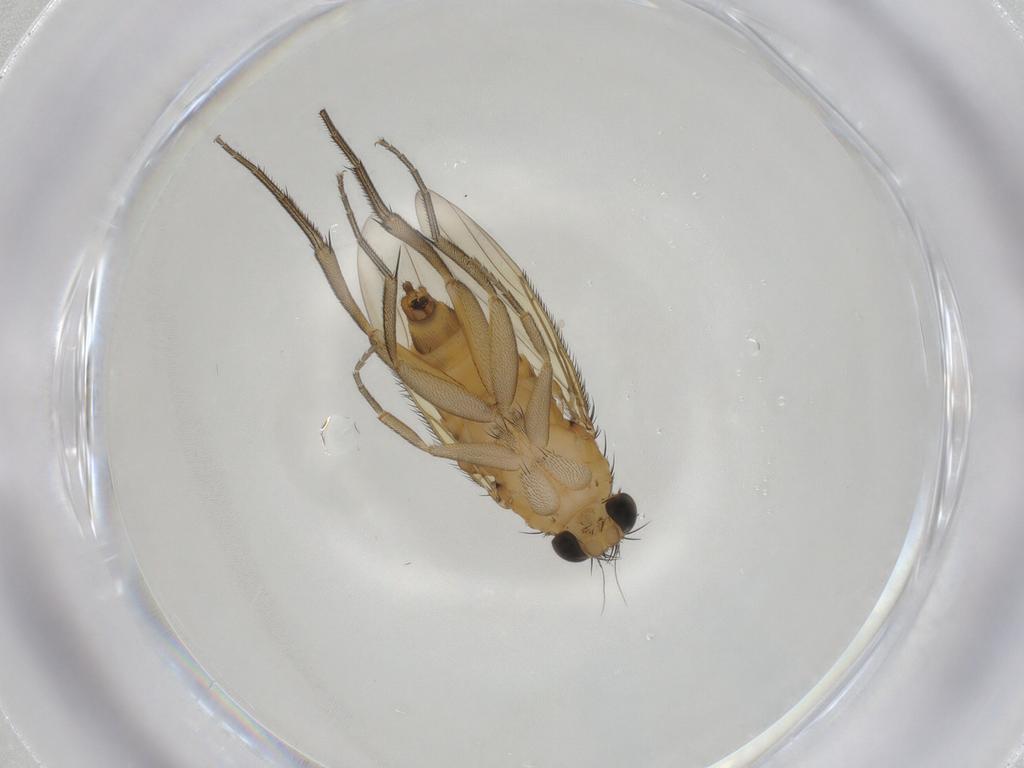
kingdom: Animalia
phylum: Arthropoda
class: Insecta
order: Diptera
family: Phoridae
